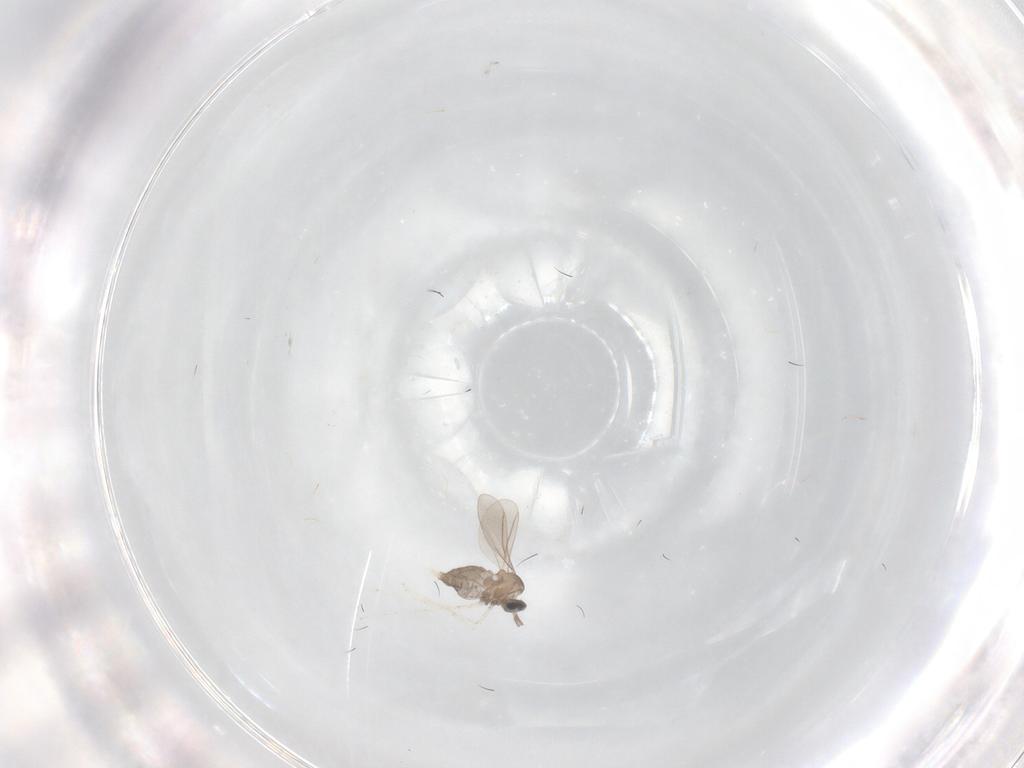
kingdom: Animalia
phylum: Arthropoda
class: Insecta
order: Diptera
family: Cecidomyiidae
